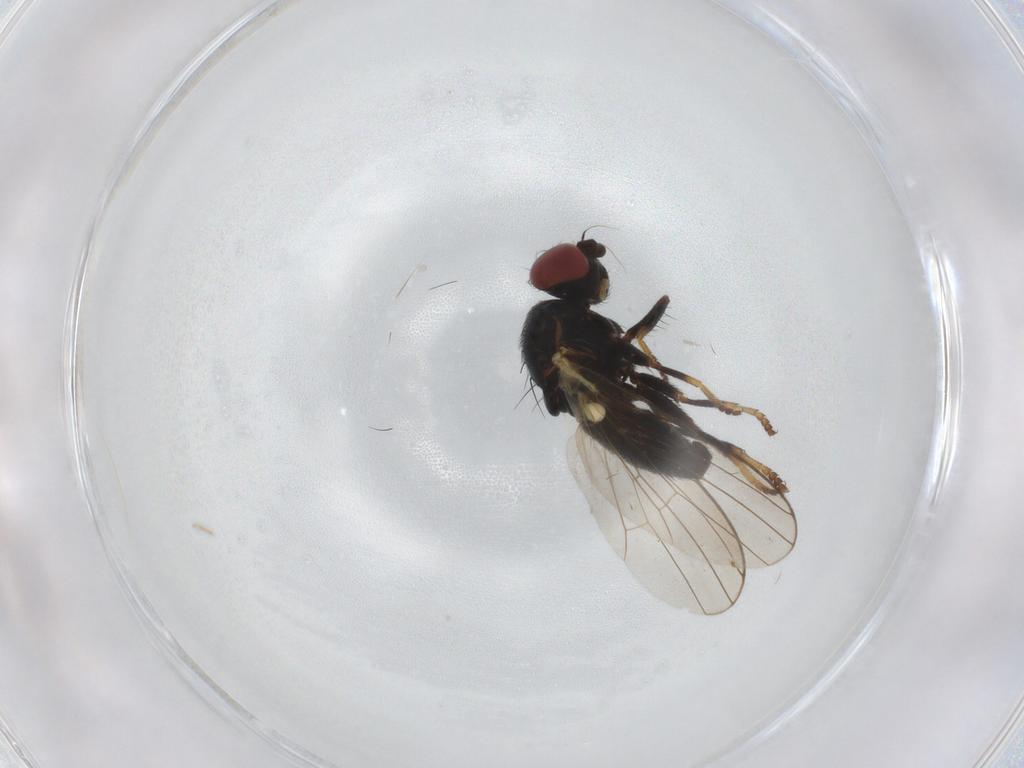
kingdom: Animalia
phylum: Arthropoda
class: Insecta
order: Diptera
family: Chamaemyiidae
